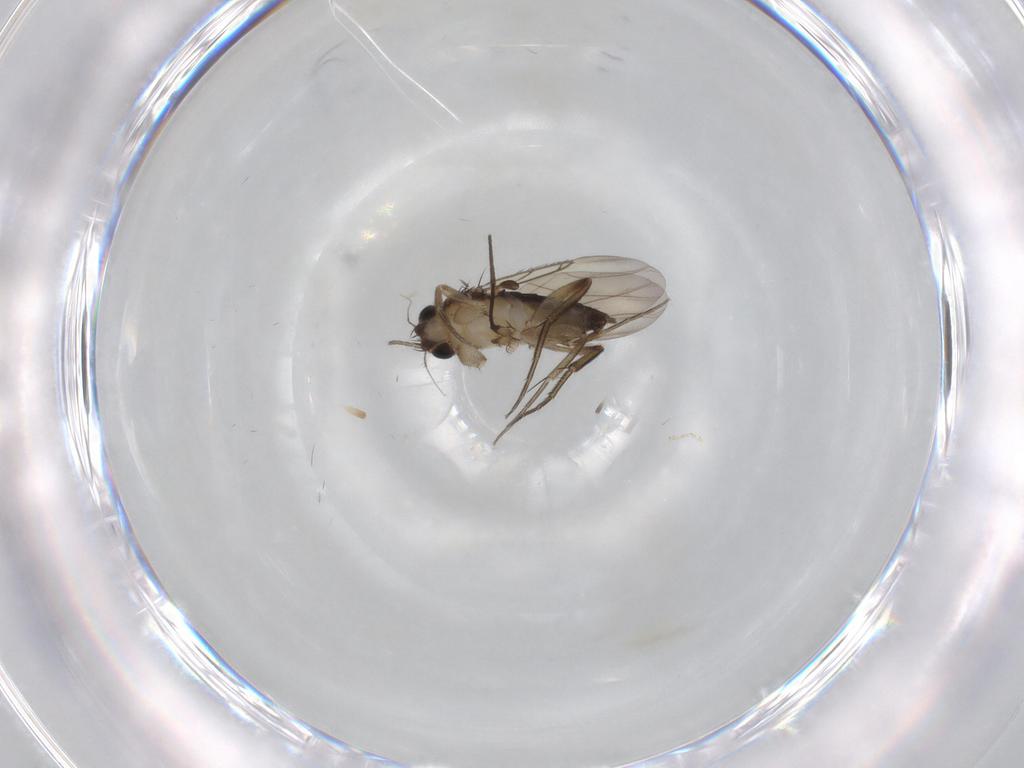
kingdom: Animalia
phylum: Arthropoda
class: Insecta
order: Diptera
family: Phoridae
